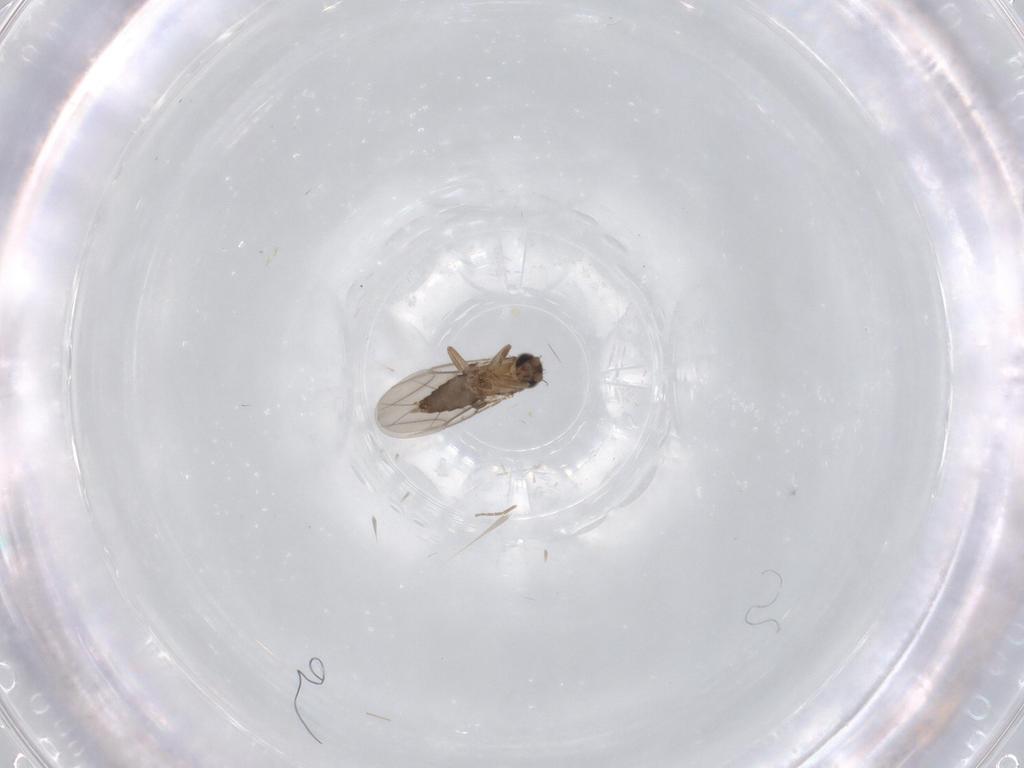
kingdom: Animalia
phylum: Arthropoda
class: Insecta
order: Diptera
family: Phoridae
